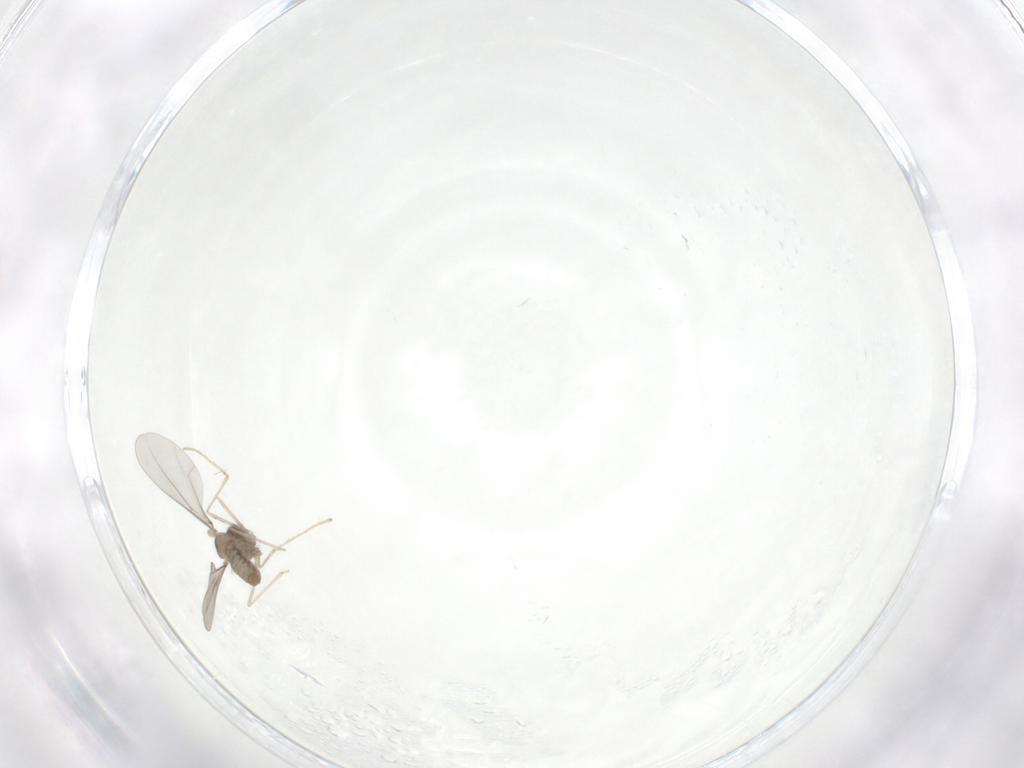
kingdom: Animalia
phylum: Arthropoda
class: Insecta
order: Diptera
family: Cecidomyiidae
